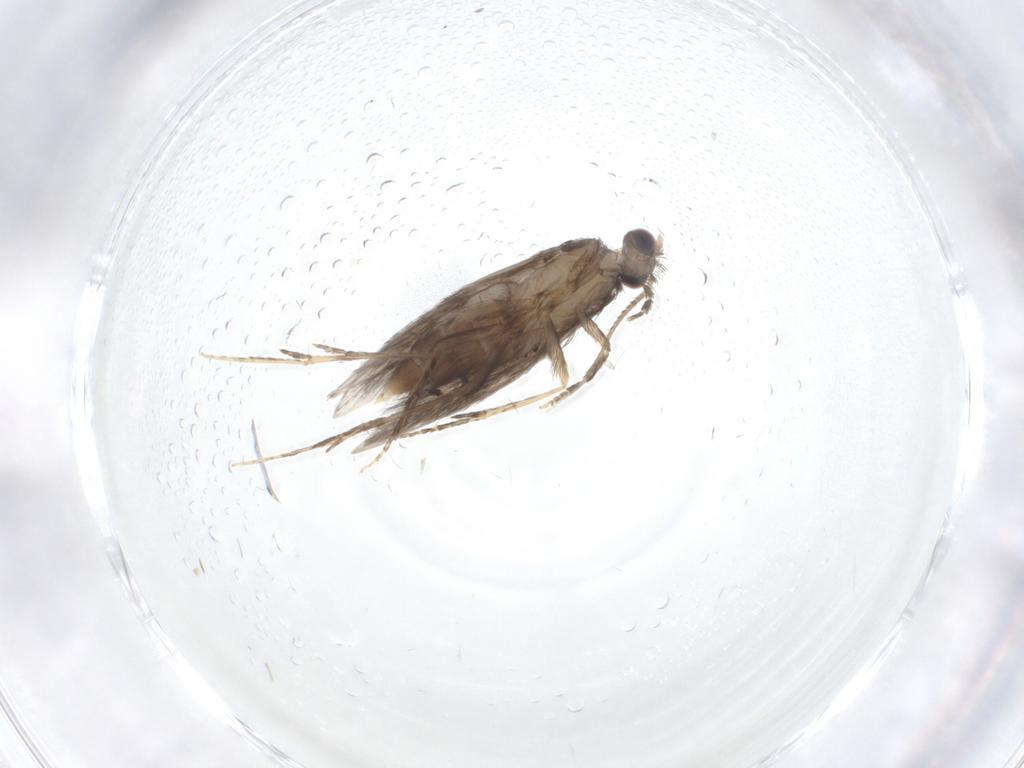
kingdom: Animalia
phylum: Arthropoda
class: Insecta
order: Trichoptera
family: Hydroptilidae
